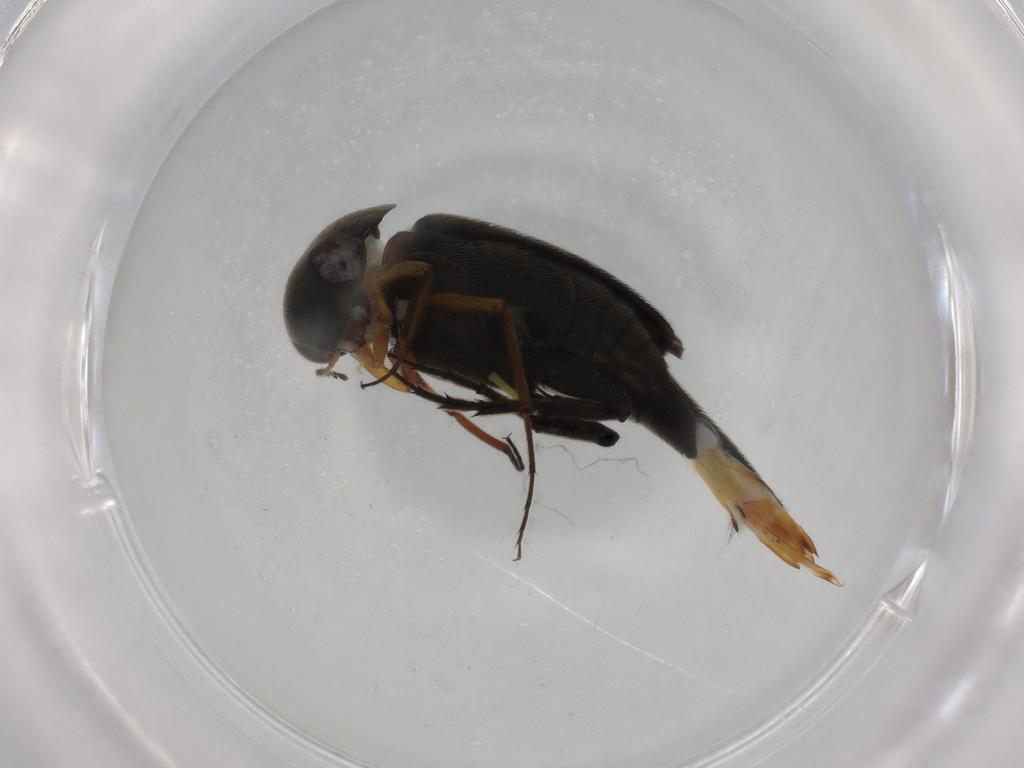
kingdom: Animalia
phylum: Arthropoda
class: Insecta
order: Coleoptera
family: Mordellidae
